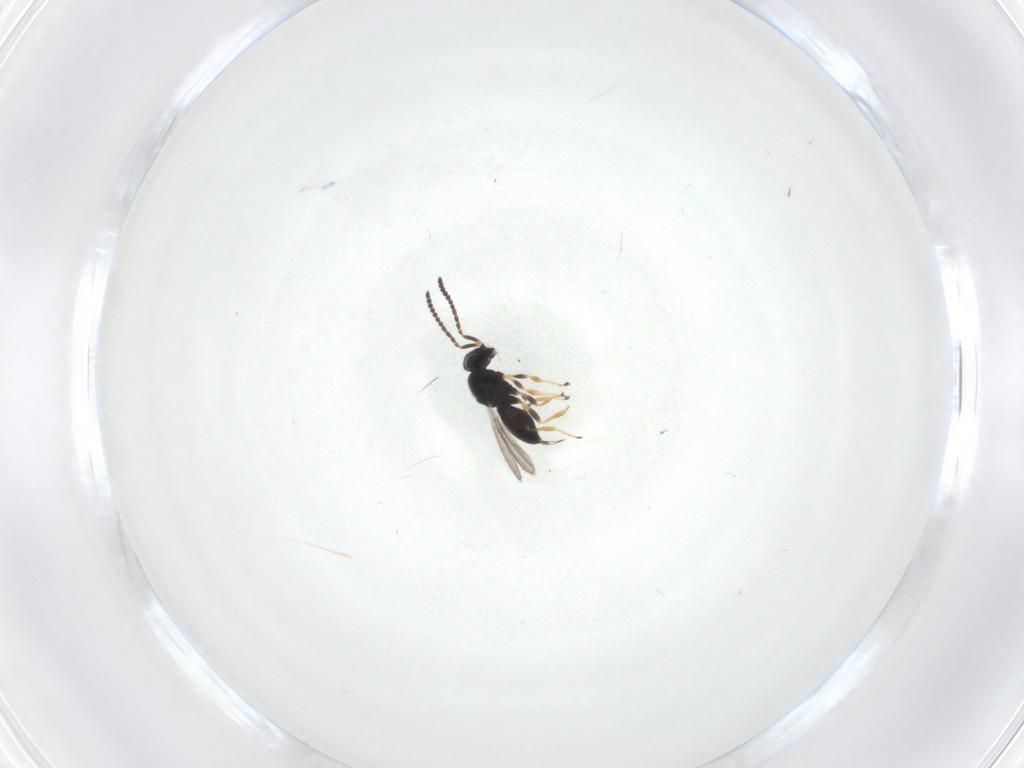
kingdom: Animalia
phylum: Arthropoda
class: Insecta
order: Hymenoptera
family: Scelionidae
